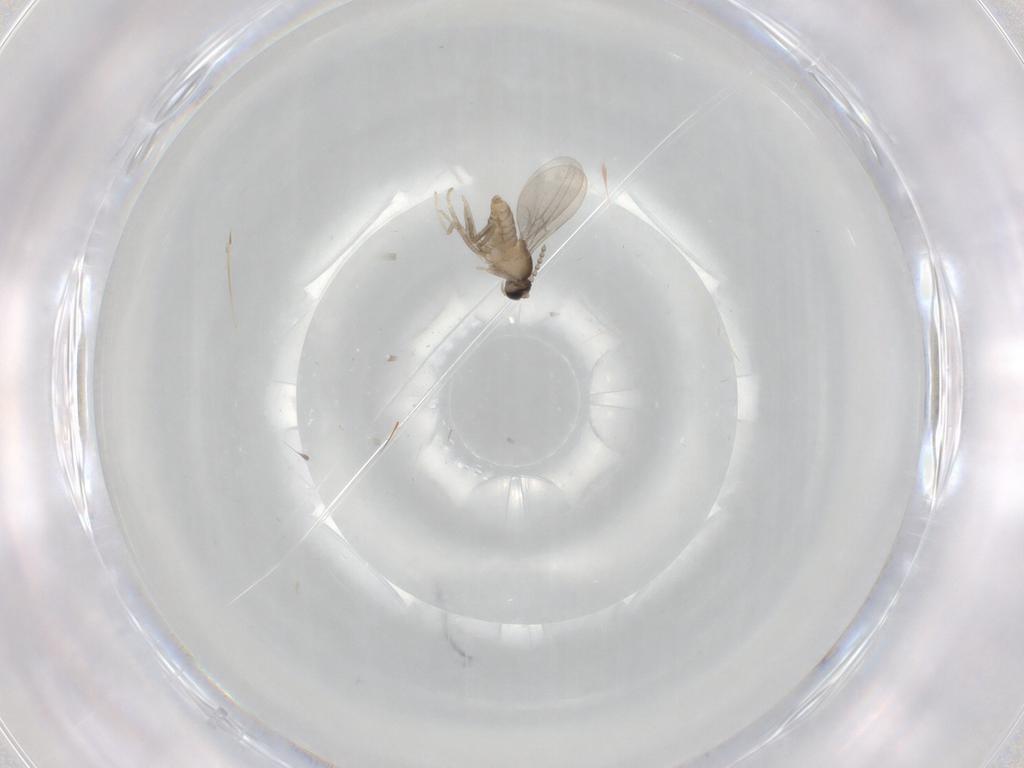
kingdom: Animalia
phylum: Arthropoda
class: Insecta
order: Diptera
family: Cecidomyiidae
